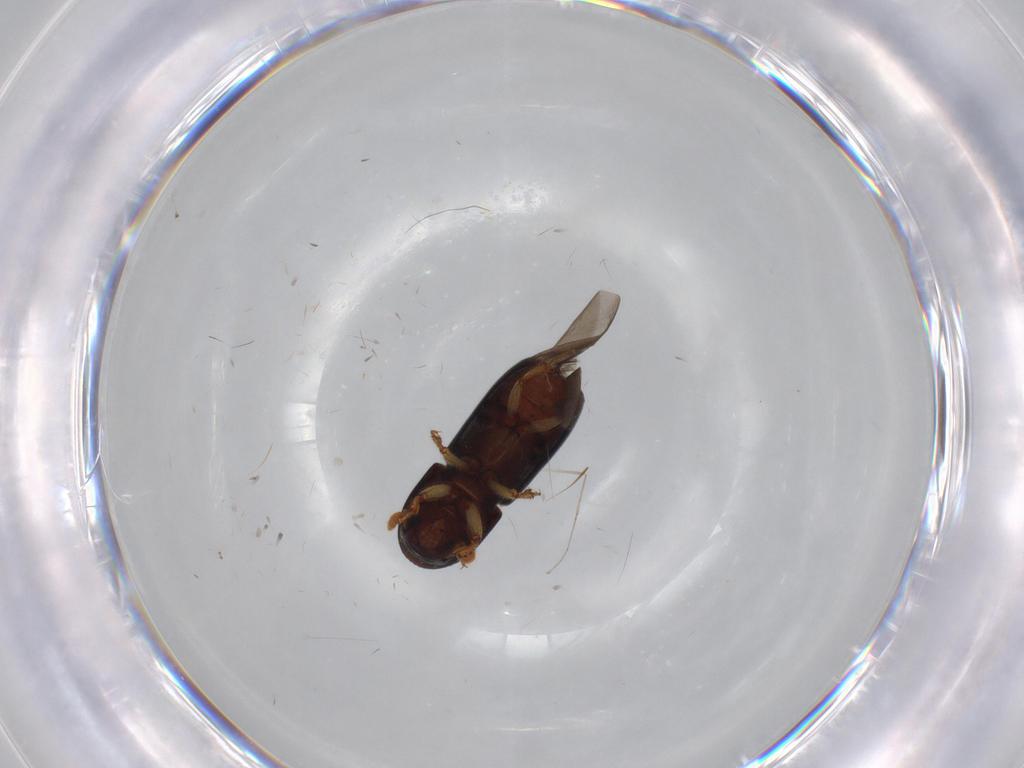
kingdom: Animalia
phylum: Arthropoda
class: Insecta
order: Coleoptera
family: Curculionidae
